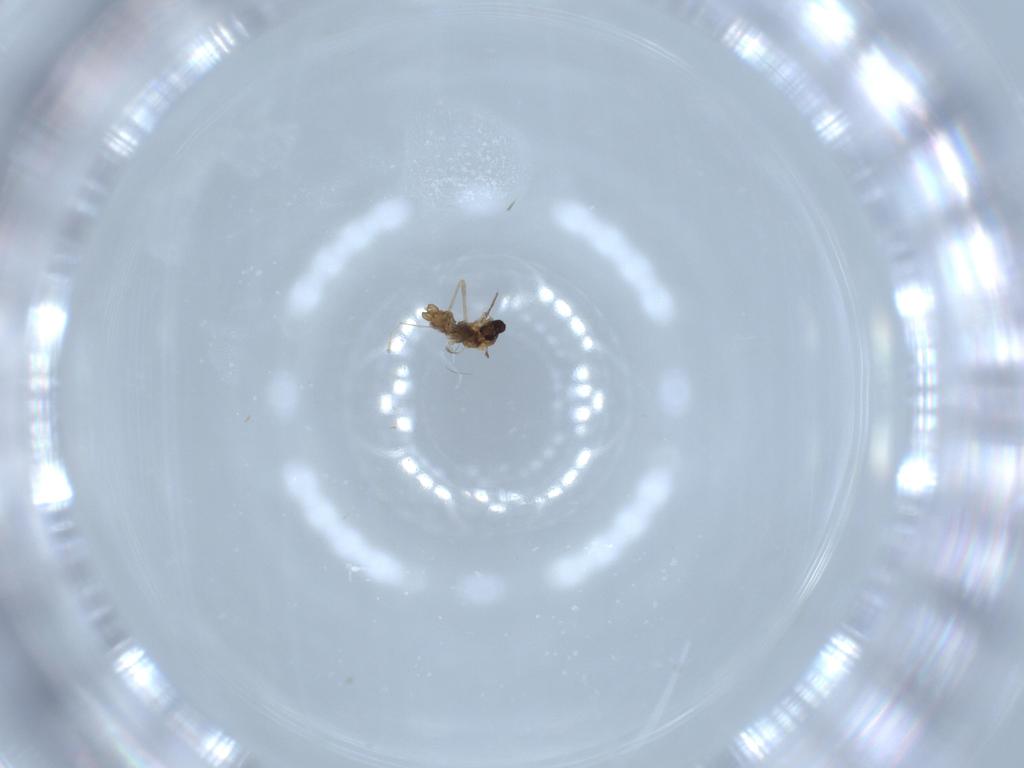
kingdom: Animalia
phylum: Arthropoda
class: Insecta
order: Diptera
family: Cecidomyiidae
